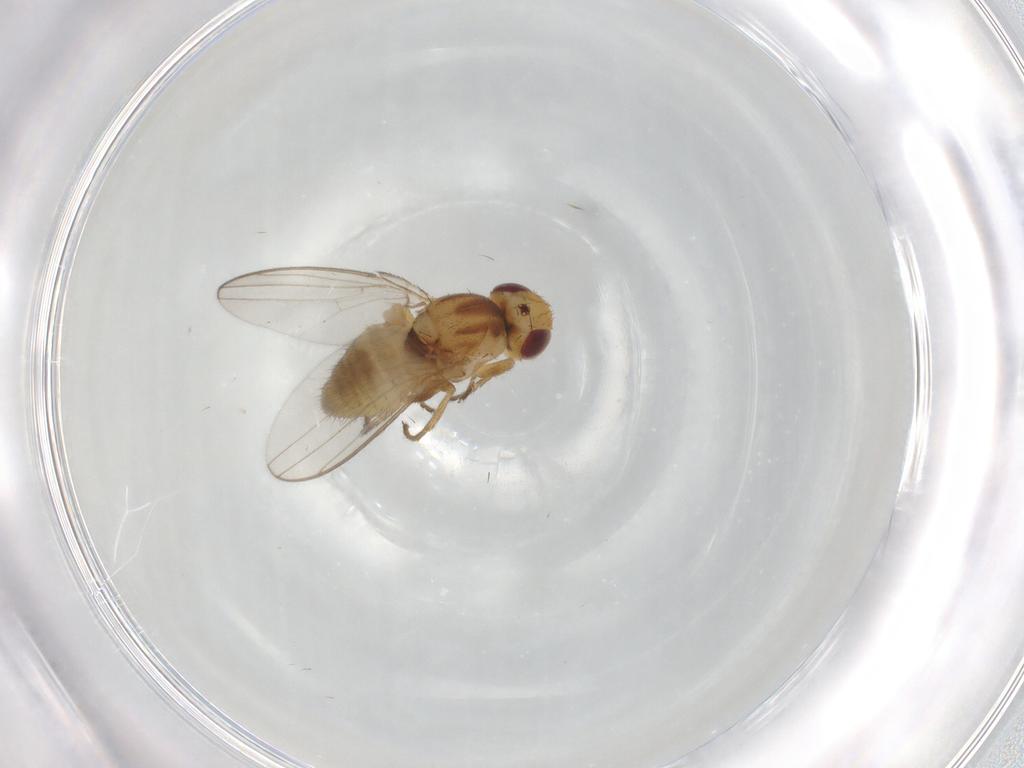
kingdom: Animalia
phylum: Arthropoda
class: Insecta
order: Diptera
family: Chloropidae
